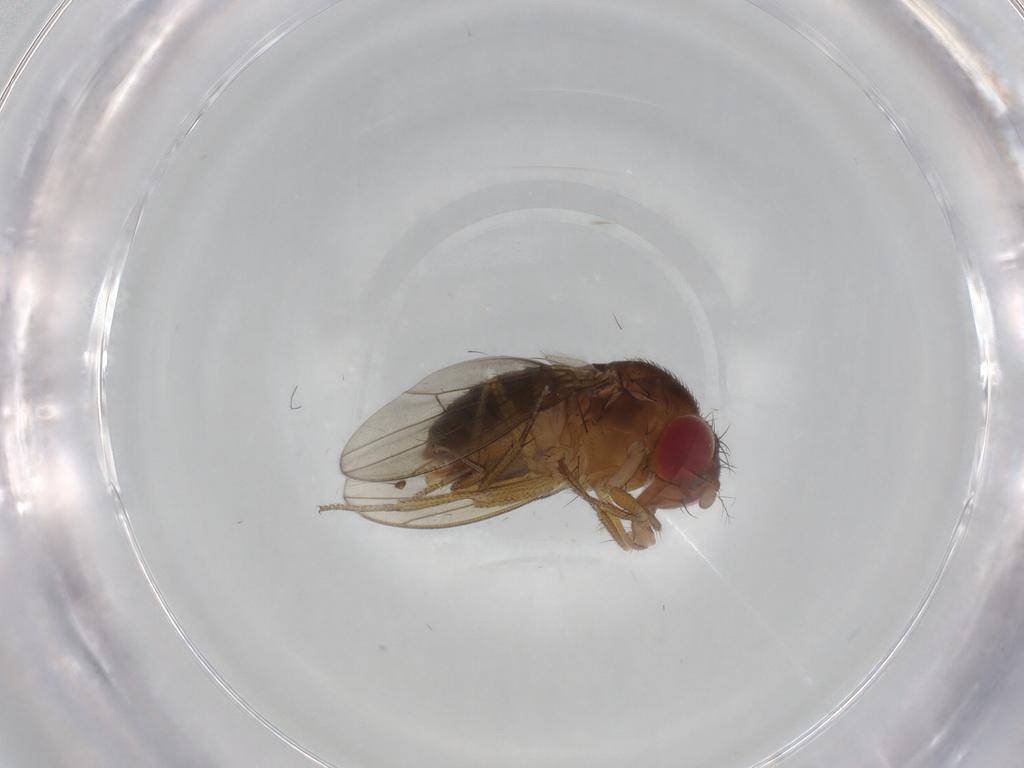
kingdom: Animalia
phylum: Arthropoda
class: Insecta
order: Diptera
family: Drosophilidae
